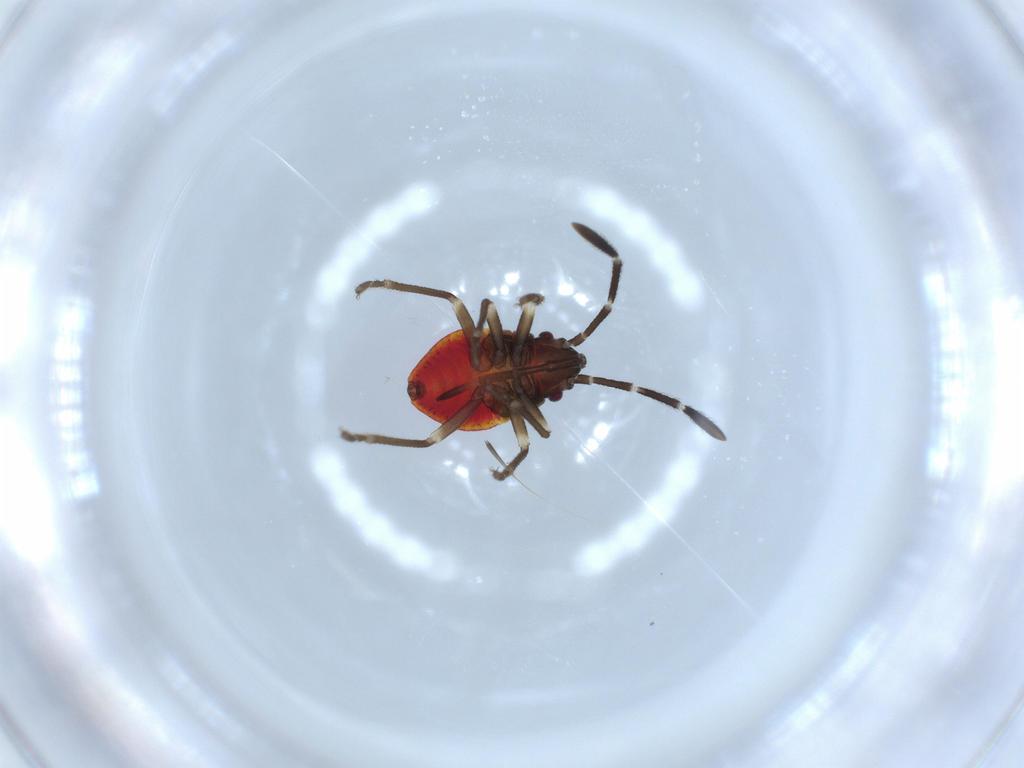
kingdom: Animalia
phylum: Arthropoda
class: Insecta
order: Hemiptera
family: Lygaeidae
